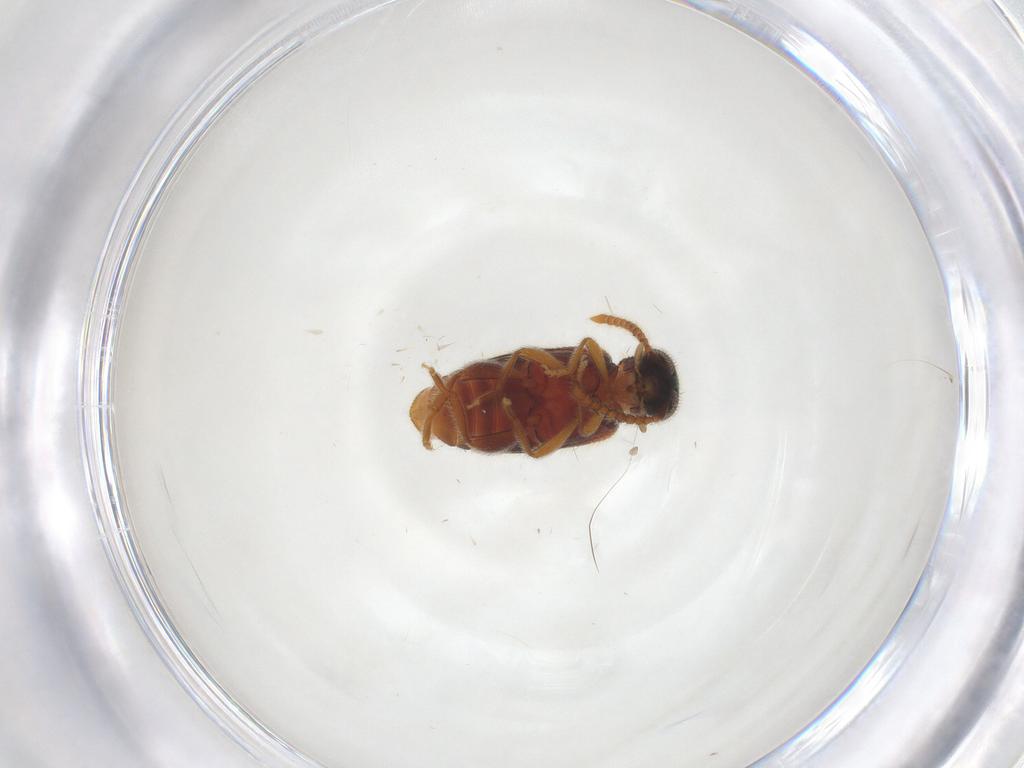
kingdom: Animalia
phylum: Arthropoda
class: Insecta
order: Coleoptera
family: Aderidae
